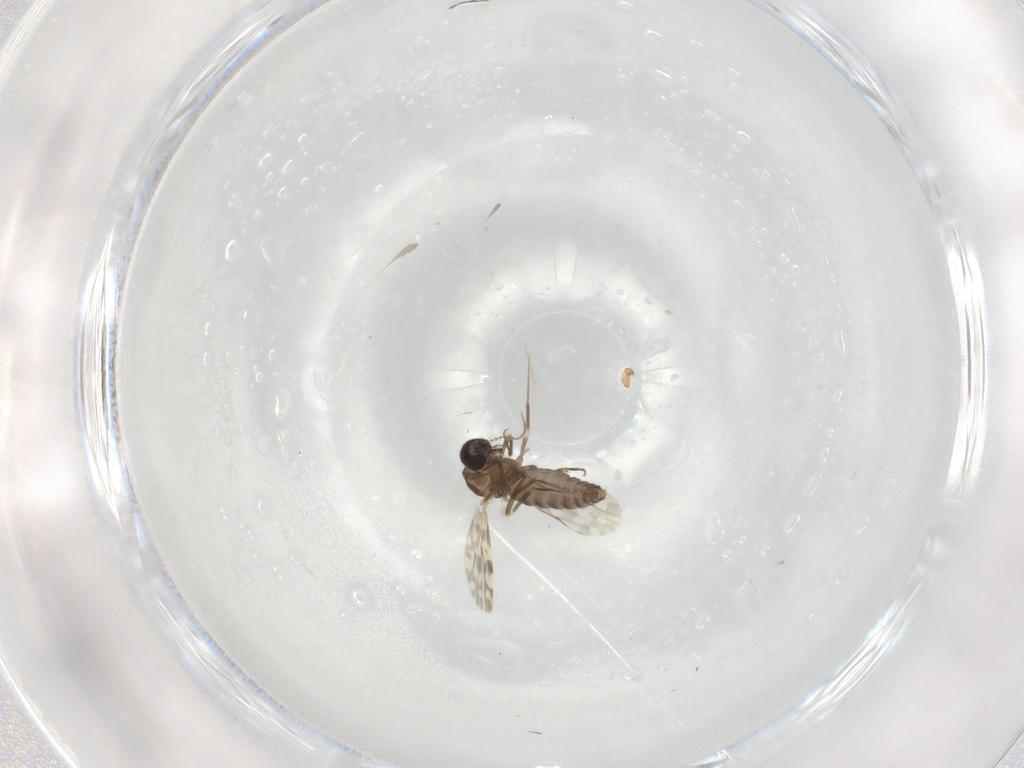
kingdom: Animalia
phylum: Arthropoda
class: Insecta
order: Diptera
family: Ceratopogonidae
